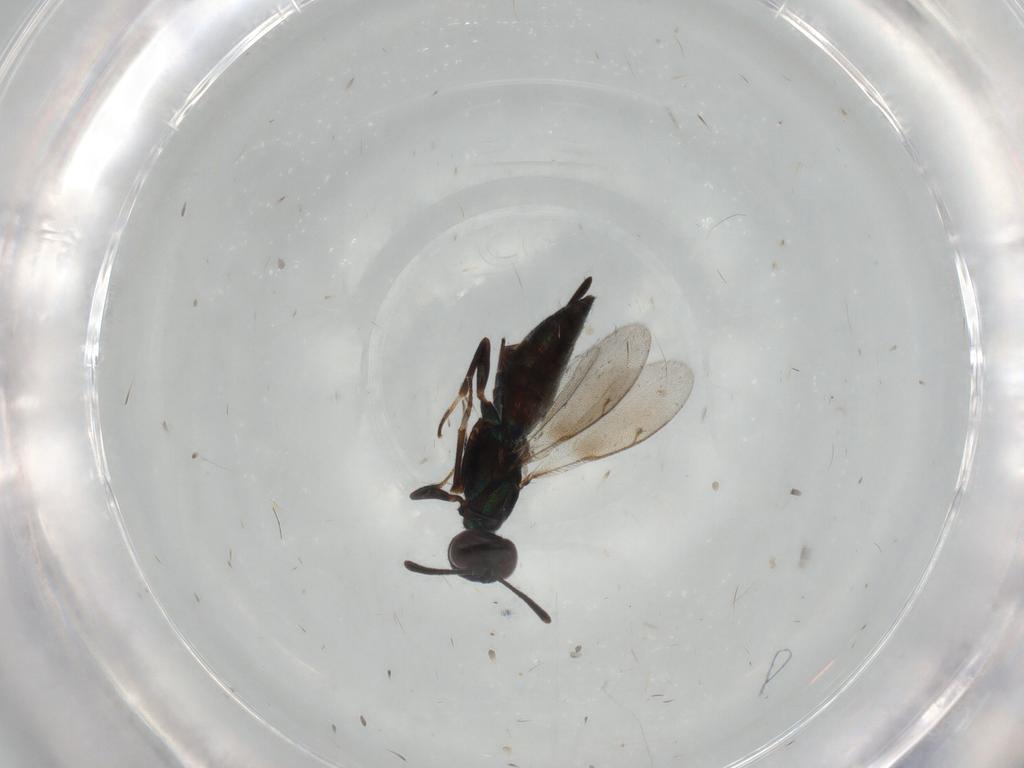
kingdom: Animalia
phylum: Arthropoda
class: Insecta
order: Hymenoptera
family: Eupelmidae
